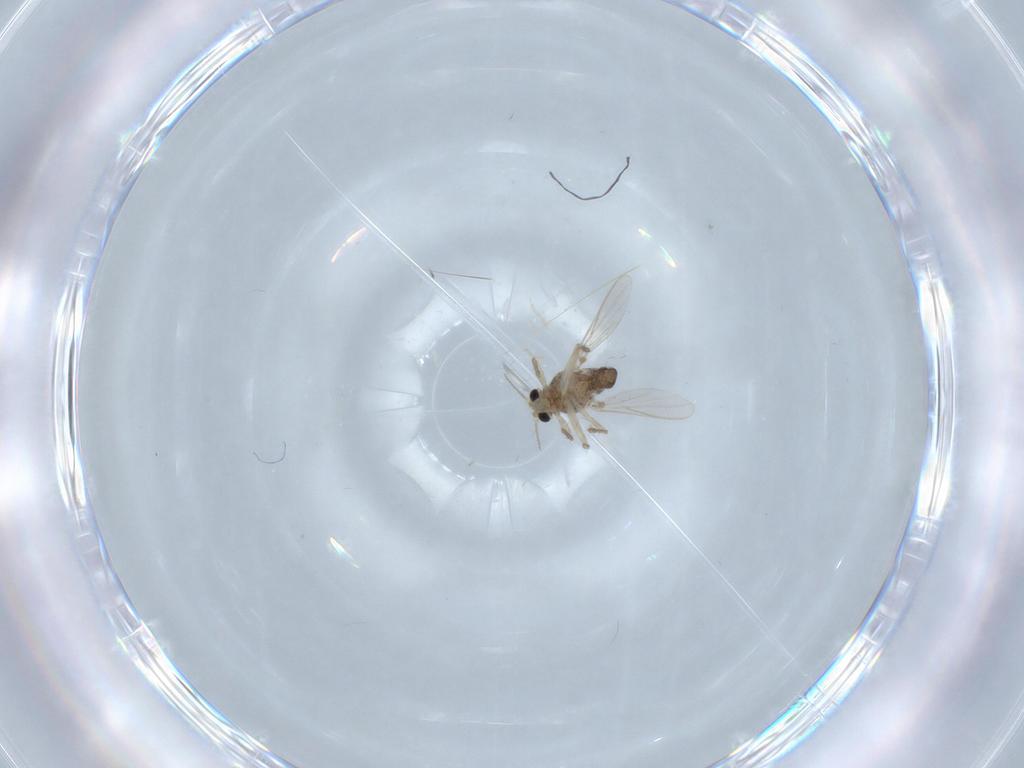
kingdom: Animalia
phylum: Arthropoda
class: Insecta
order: Diptera
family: Chironomidae
